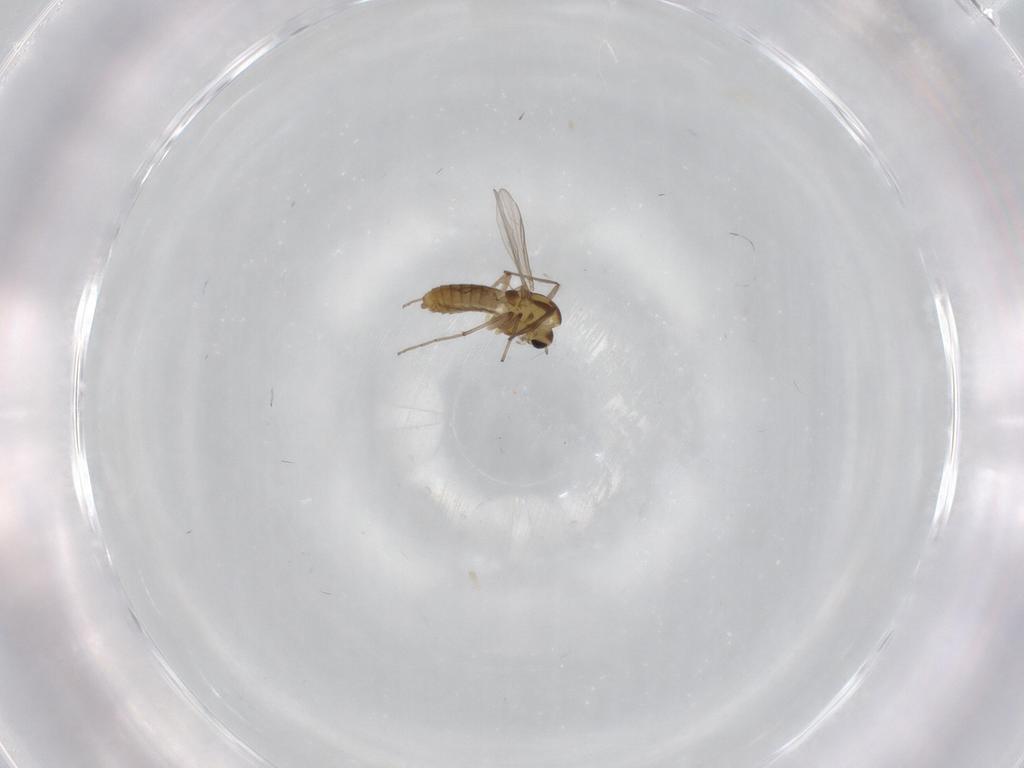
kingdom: Animalia
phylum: Arthropoda
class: Insecta
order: Diptera
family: Chironomidae
